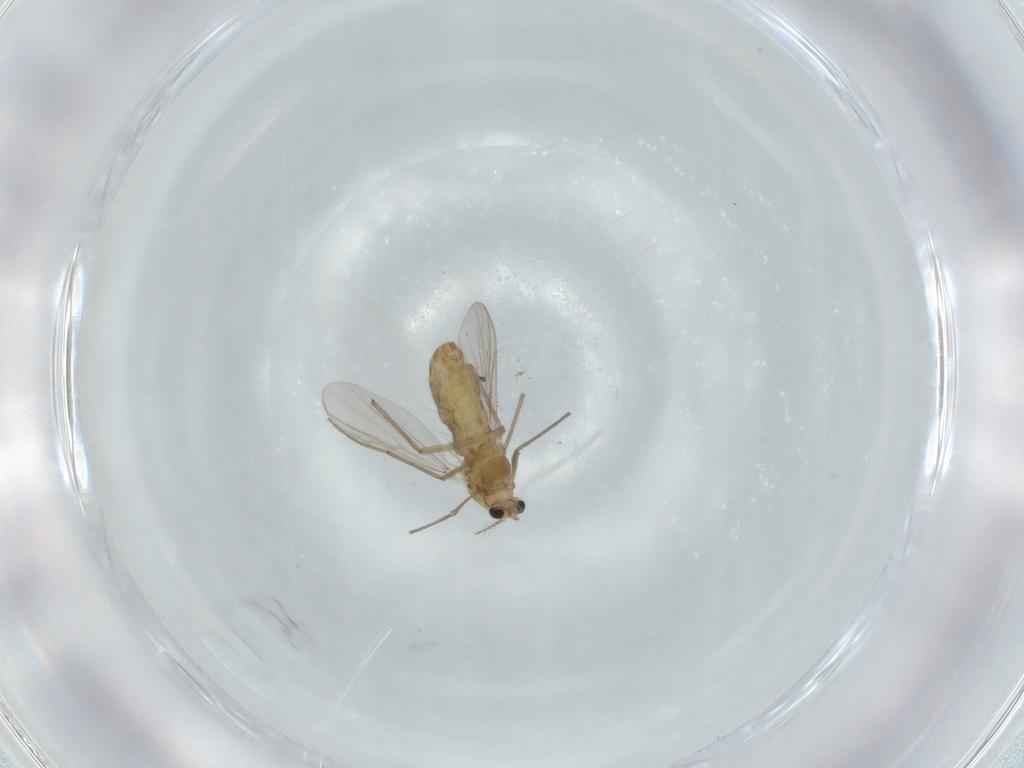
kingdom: Animalia
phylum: Arthropoda
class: Insecta
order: Diptera
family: Chironomidae
